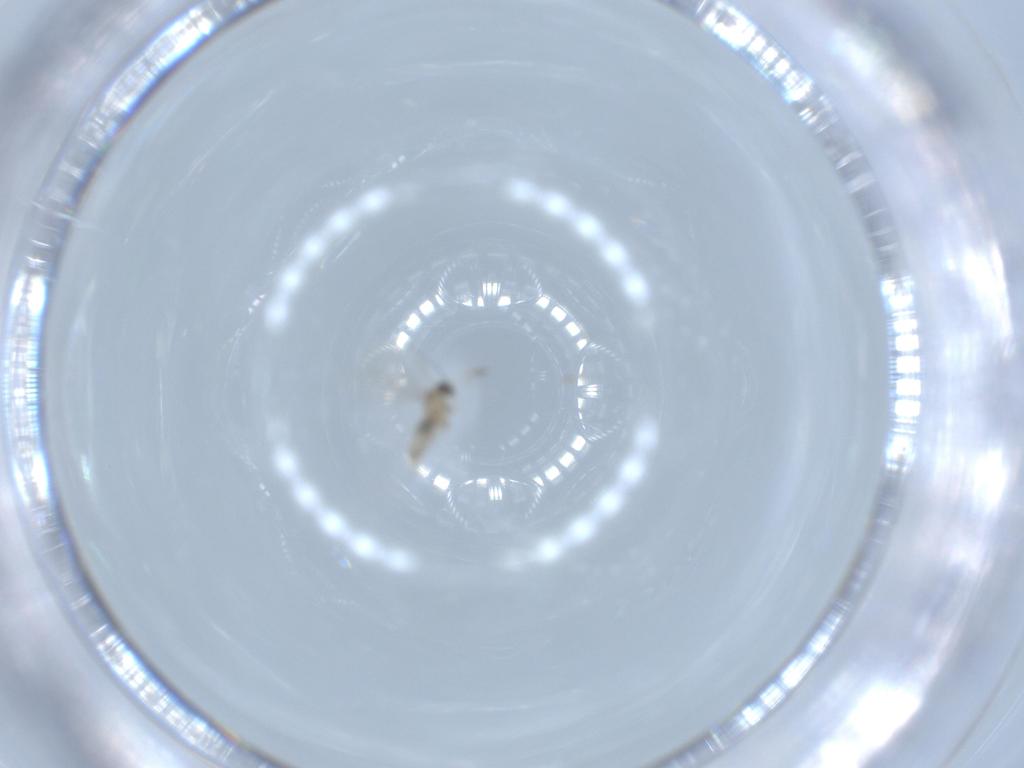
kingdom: Animalia
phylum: Arthropoda
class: Insecta
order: Diptera
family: Cecidomyiidae
